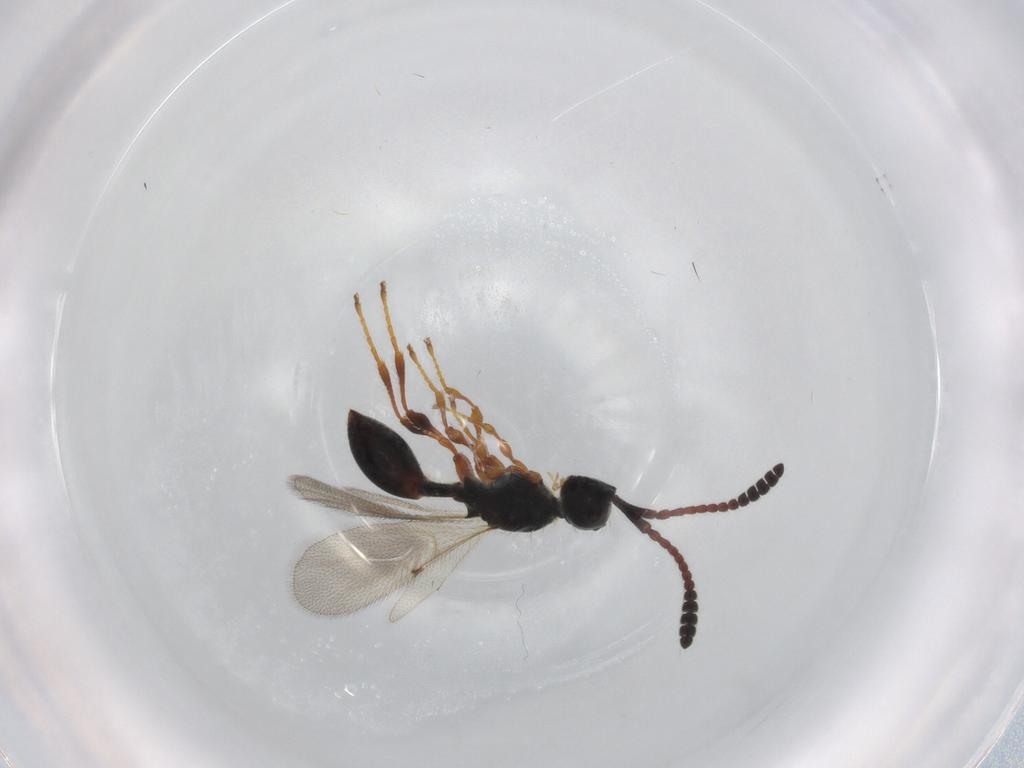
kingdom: Animalia
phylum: Arthropoda
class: Insecta
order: Hymenoptera
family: Diapriidae
